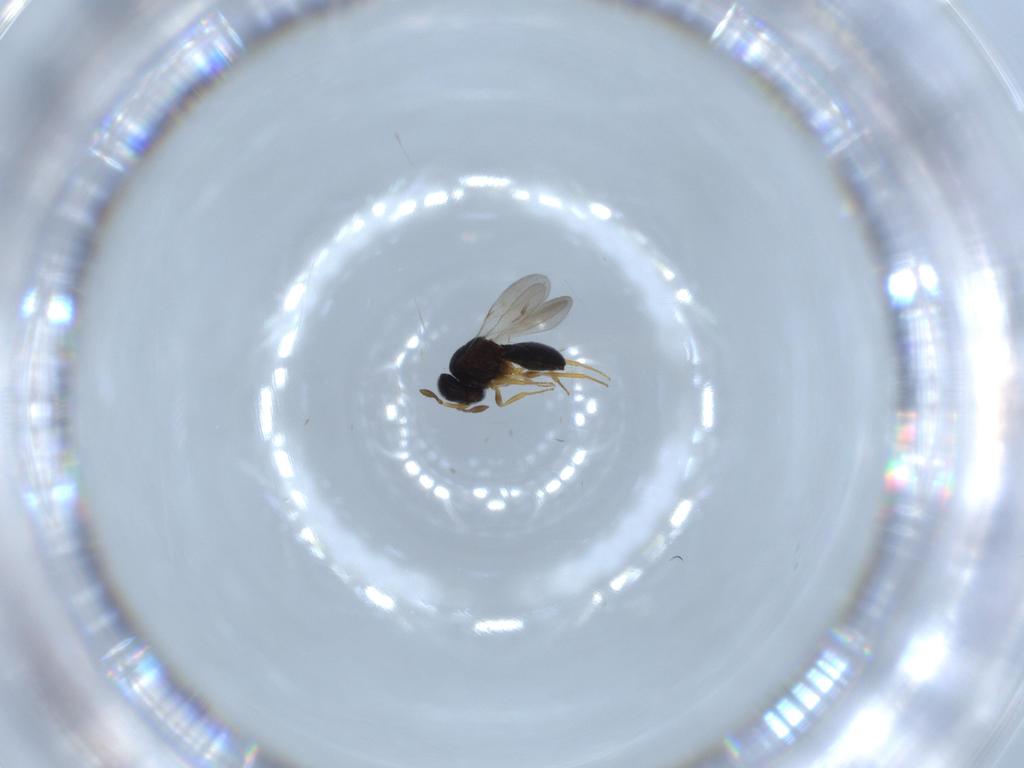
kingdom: Animalia
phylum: Arthropoda
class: Insecta
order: Hymenoptera
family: Scelionidae
